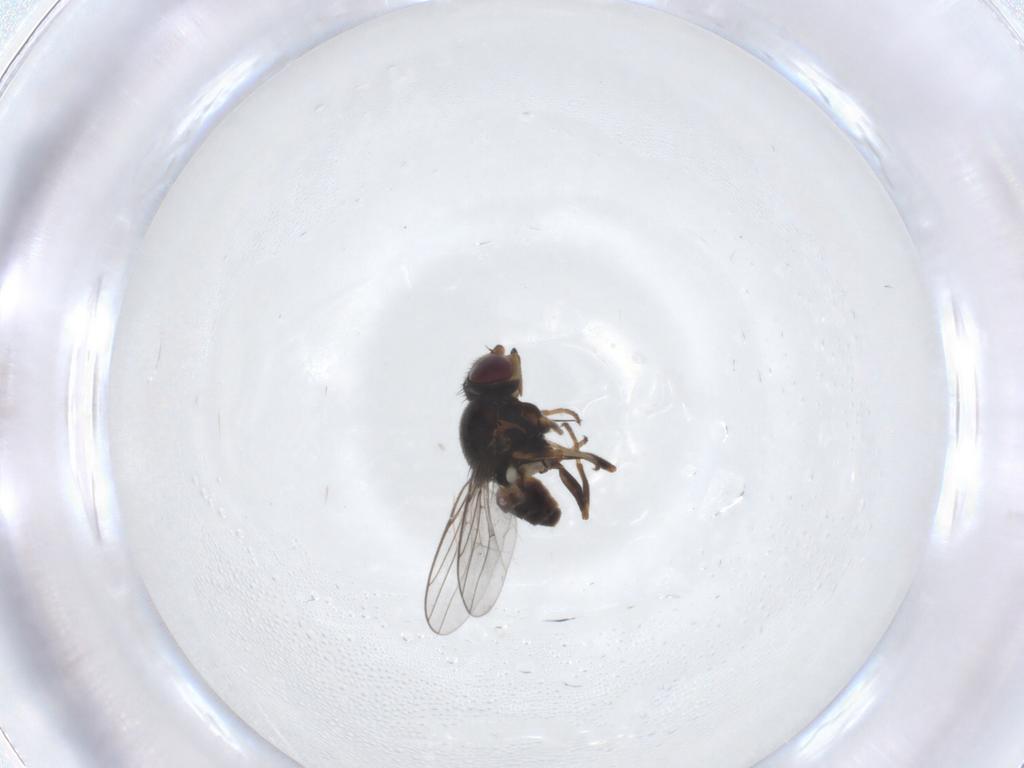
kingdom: Animalia
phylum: Arthropoda
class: Insecta
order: Diptera
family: Chloropidae
